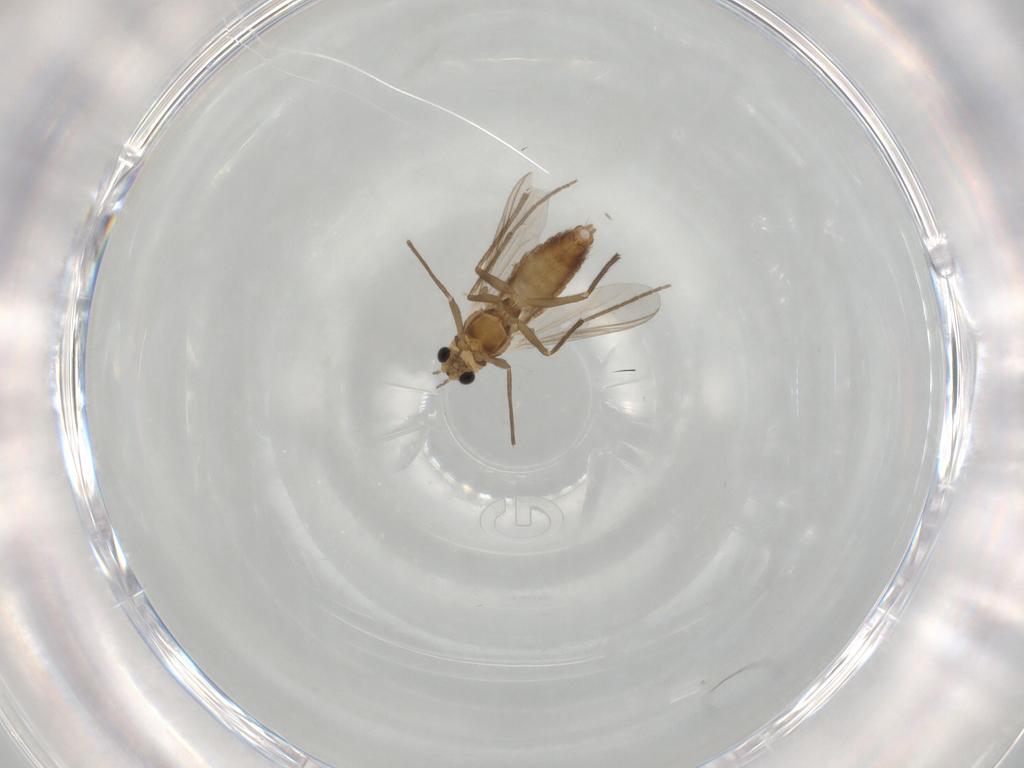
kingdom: Animalia
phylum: Arthropoda
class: Insecta
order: Diptera
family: Chironomidae
